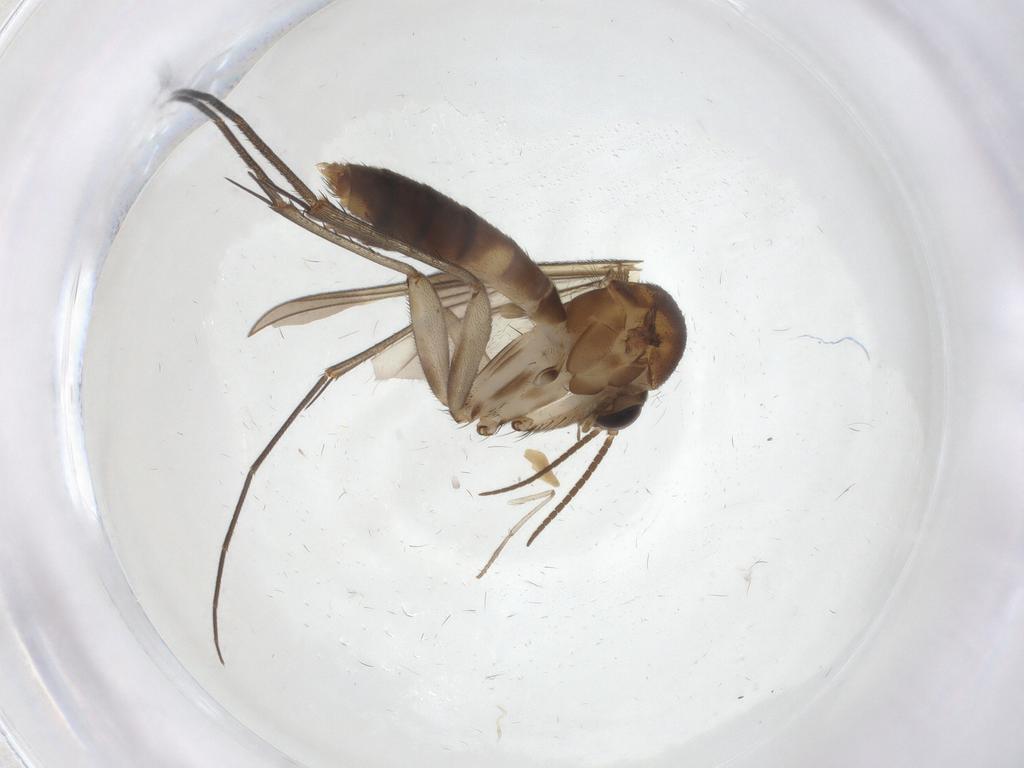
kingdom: Animalia
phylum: Arthropoda
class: Insecta
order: Diptera
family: Phoridae
